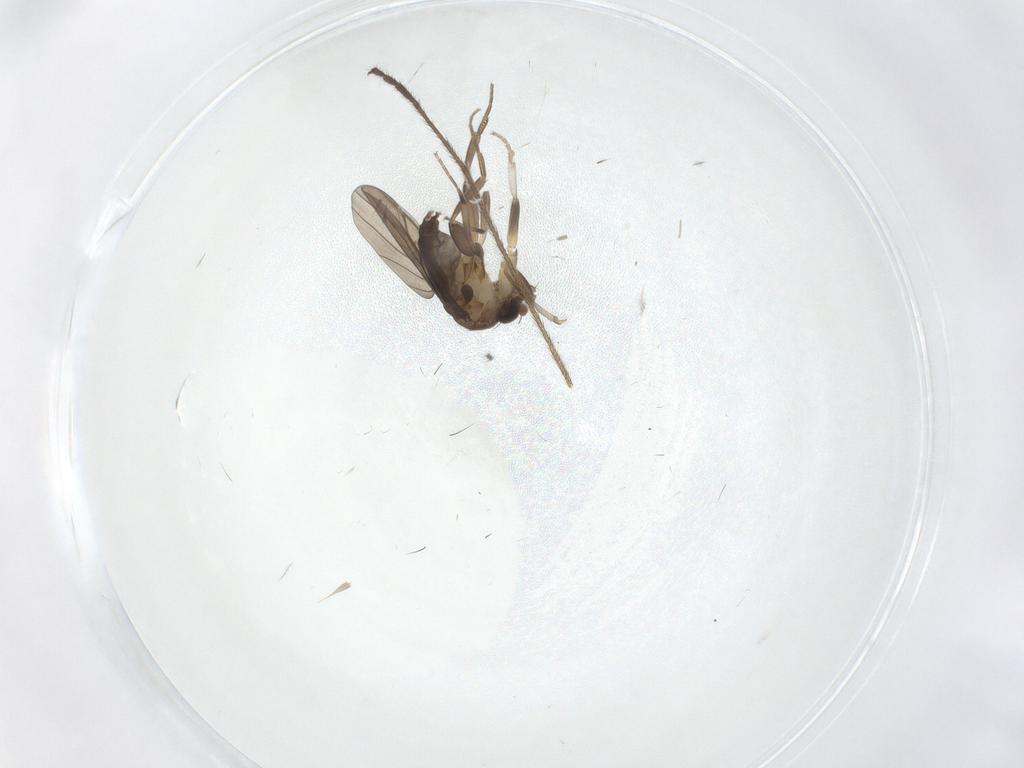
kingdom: Animalia
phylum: Arthropoda
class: Insecta
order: Diptera
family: Limoniidae
